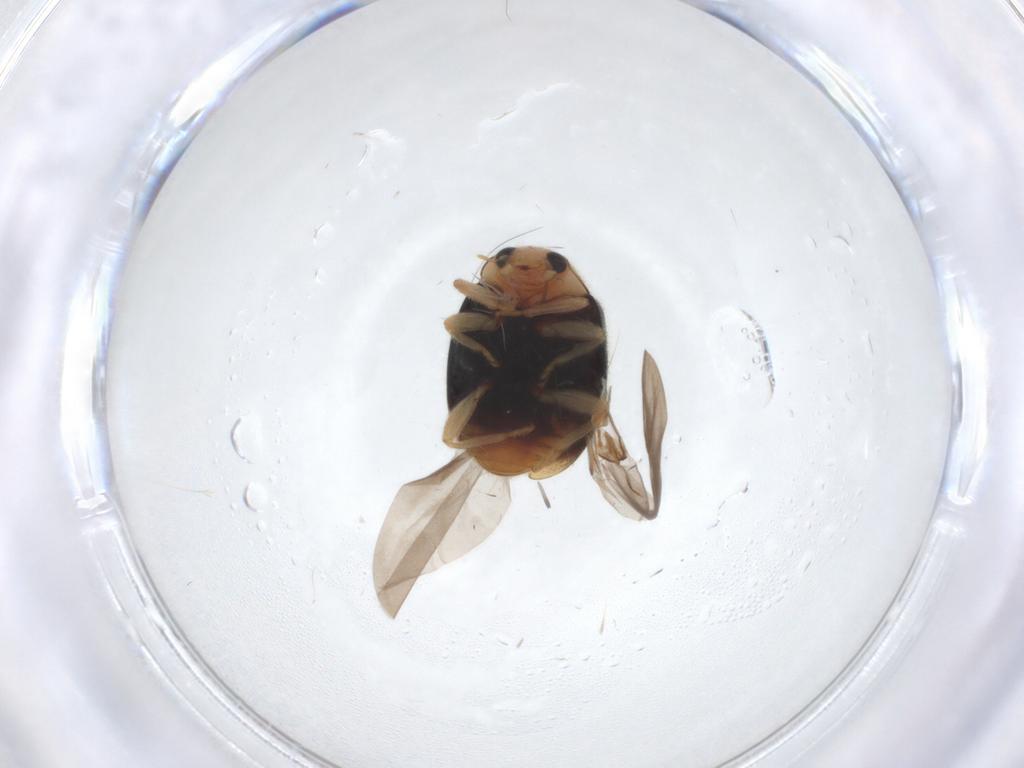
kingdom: Animalia
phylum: Arthropoda
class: Insecta
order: Coleoptera
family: Coccinellidae
